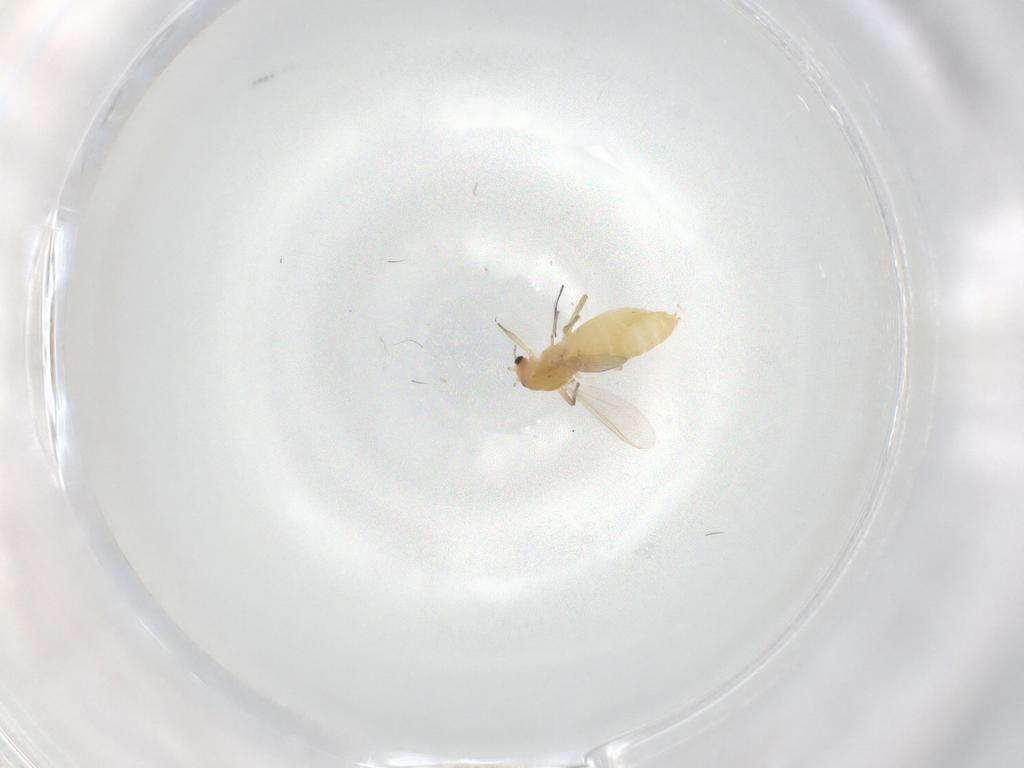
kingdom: Animalia
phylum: Arthropoda
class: Insecta
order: Diptera
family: Chironomidae
